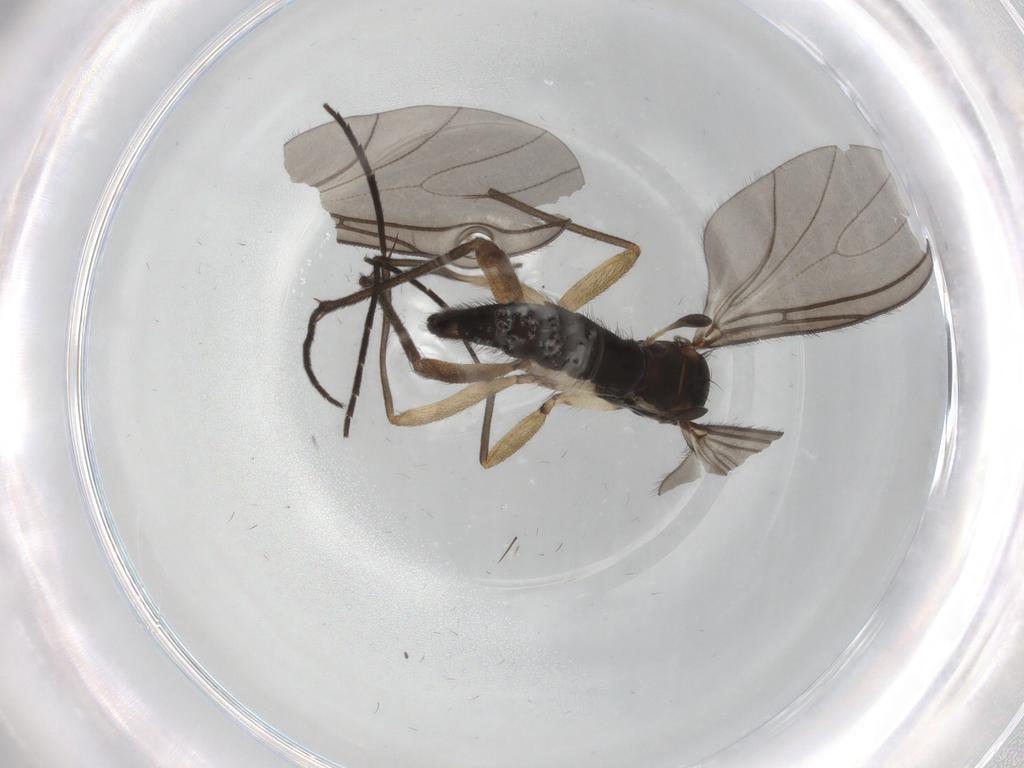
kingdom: Animalia
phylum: Arthropoda
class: Insecta
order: Diptera
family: Sciaridae
